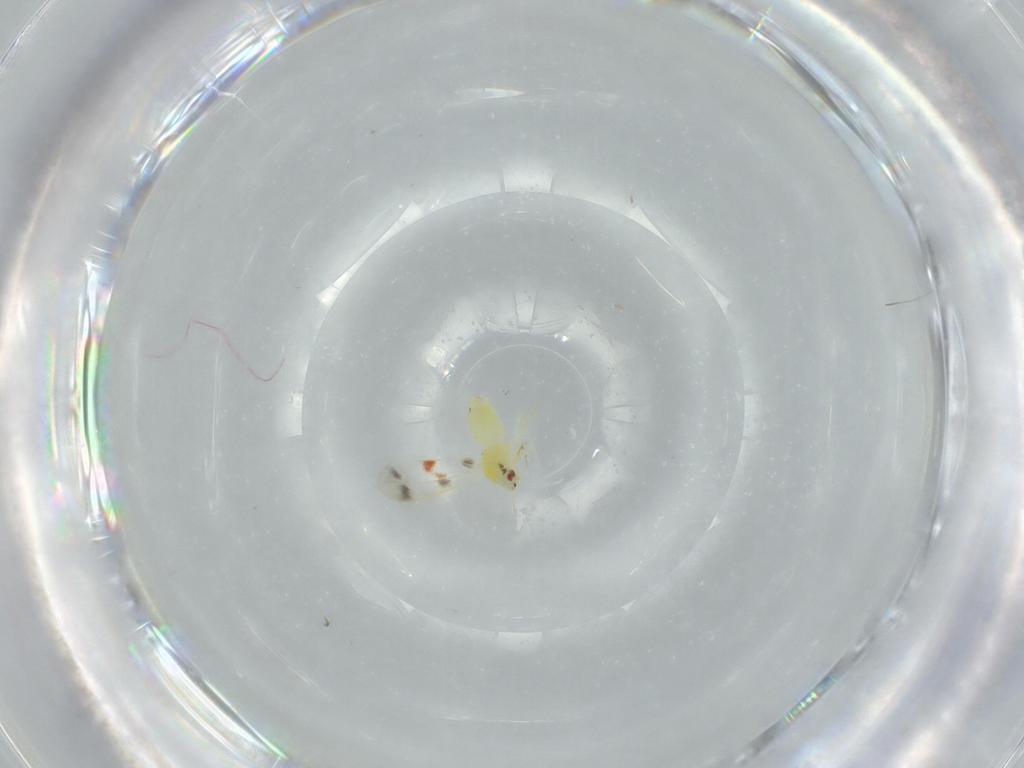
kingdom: Animalia
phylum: Arthropoda
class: Insecta
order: Hemiptera
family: Aleyrodidae
